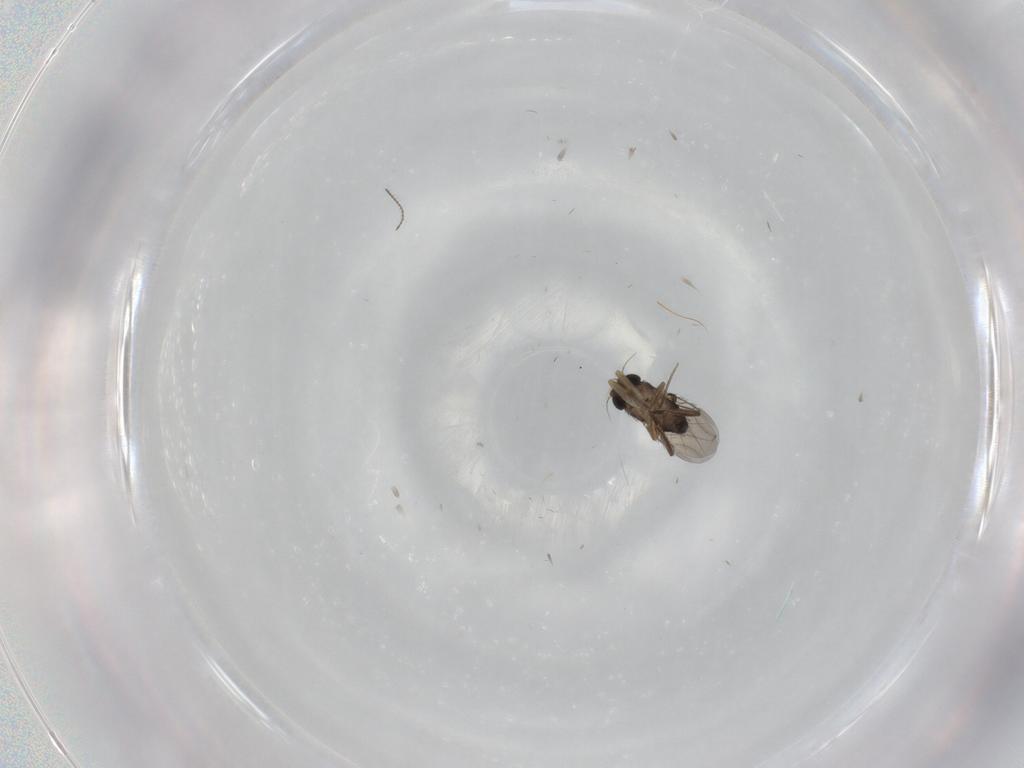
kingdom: Animalia
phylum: Arthropoda
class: Insecta
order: Diptera
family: Phoridae
